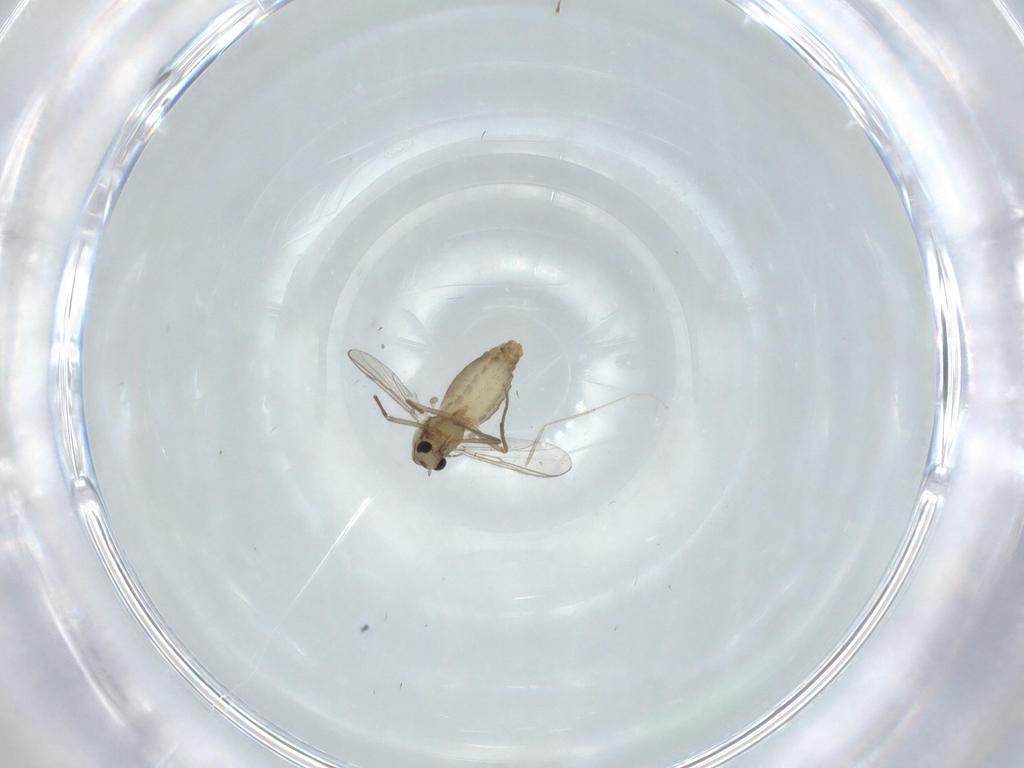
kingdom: Animalia
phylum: Arthropoda
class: Insecta
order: Diptera
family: Chironomidae
